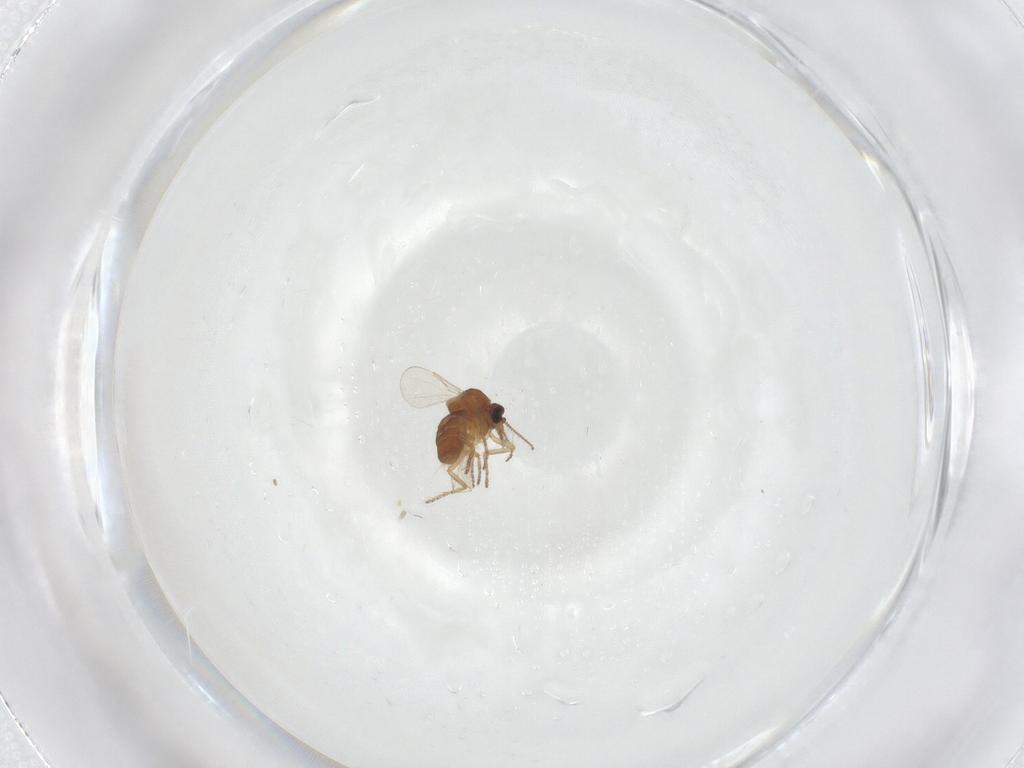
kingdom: Animalia
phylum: Arthropoda
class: Insecta
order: Diptera
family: Ceratopogonidae
